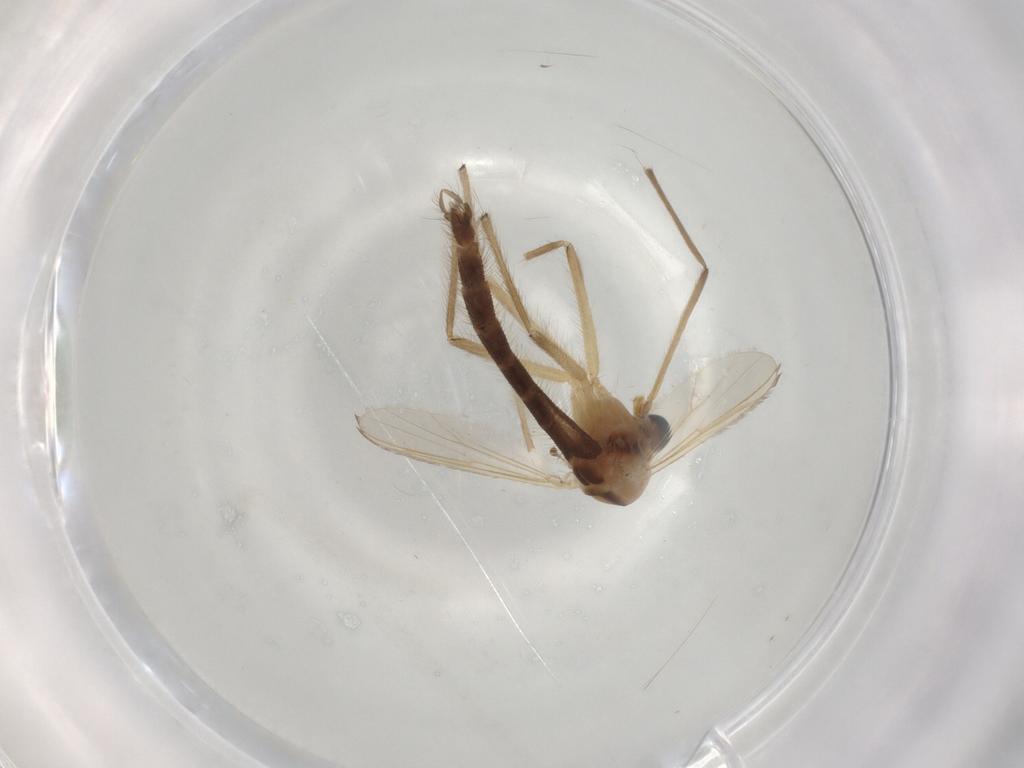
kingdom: Animalia
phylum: Arthropoda
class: Insecta
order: Diptera
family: Chironomidae
